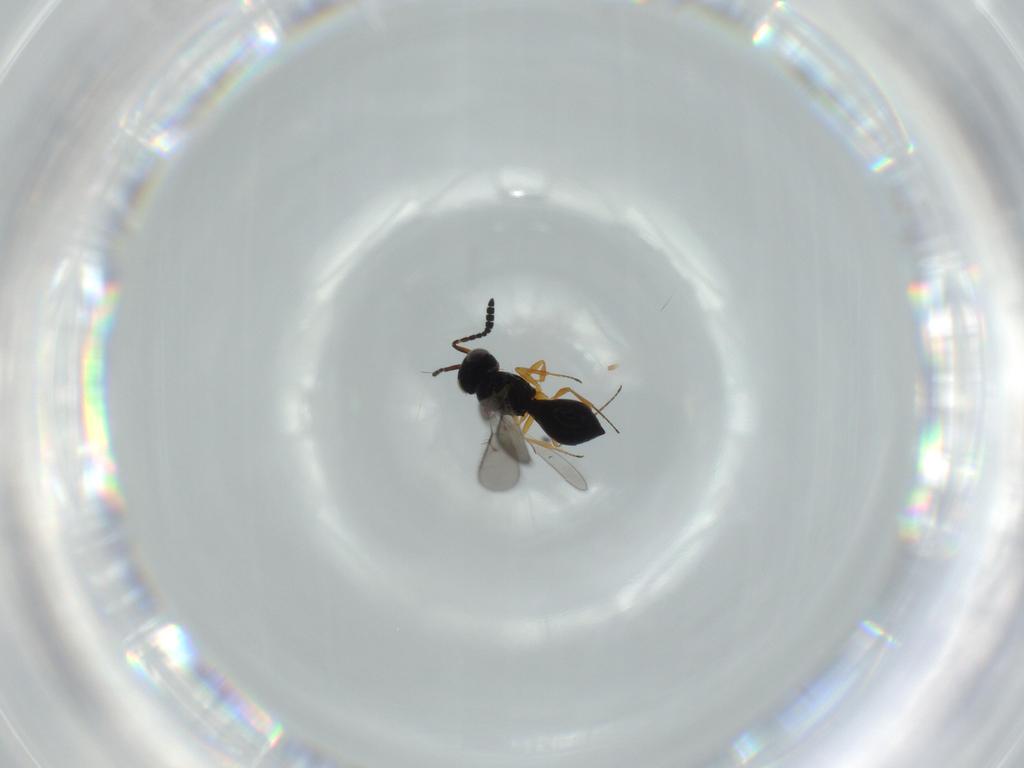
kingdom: Animalia
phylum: Arthropoda
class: Insecta
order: Hymenoptera
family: Scelionidae
